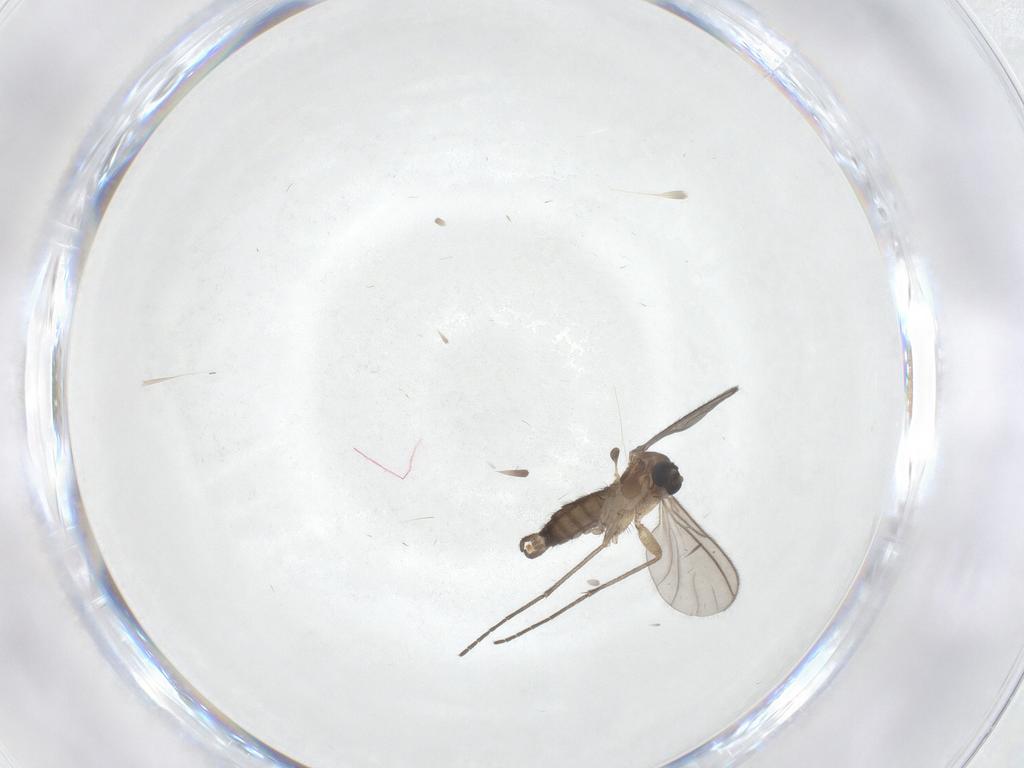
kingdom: Animalia
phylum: Arthropoda
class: Insecta
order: Diptera
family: Sciaridae
